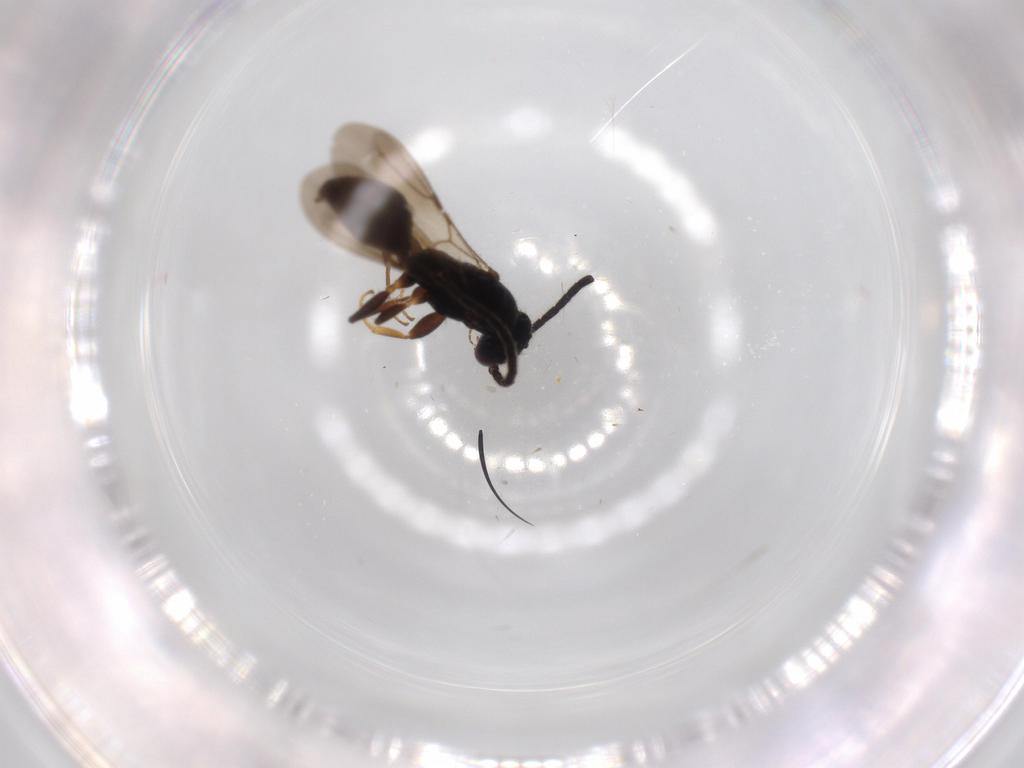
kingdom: Animalia
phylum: Arthropoda
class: Insecta
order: Hymenoptera
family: Bethylidae
